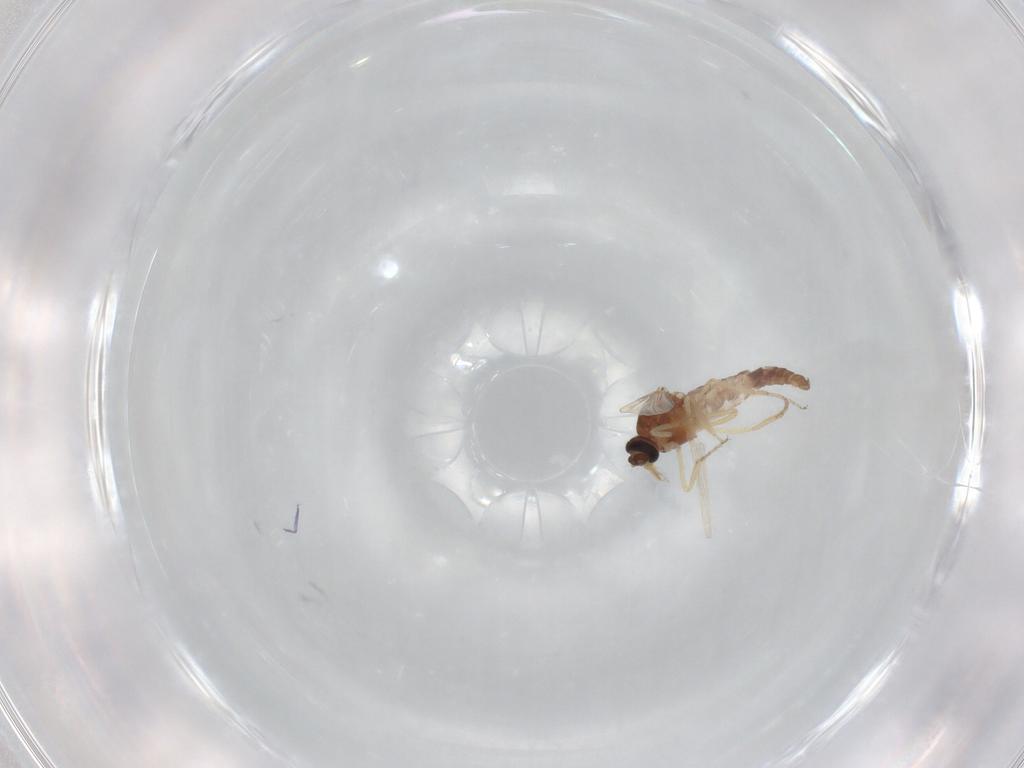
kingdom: Animalia
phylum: Arthropoda
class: Insecta
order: Diptera
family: Ceratopogonidae
